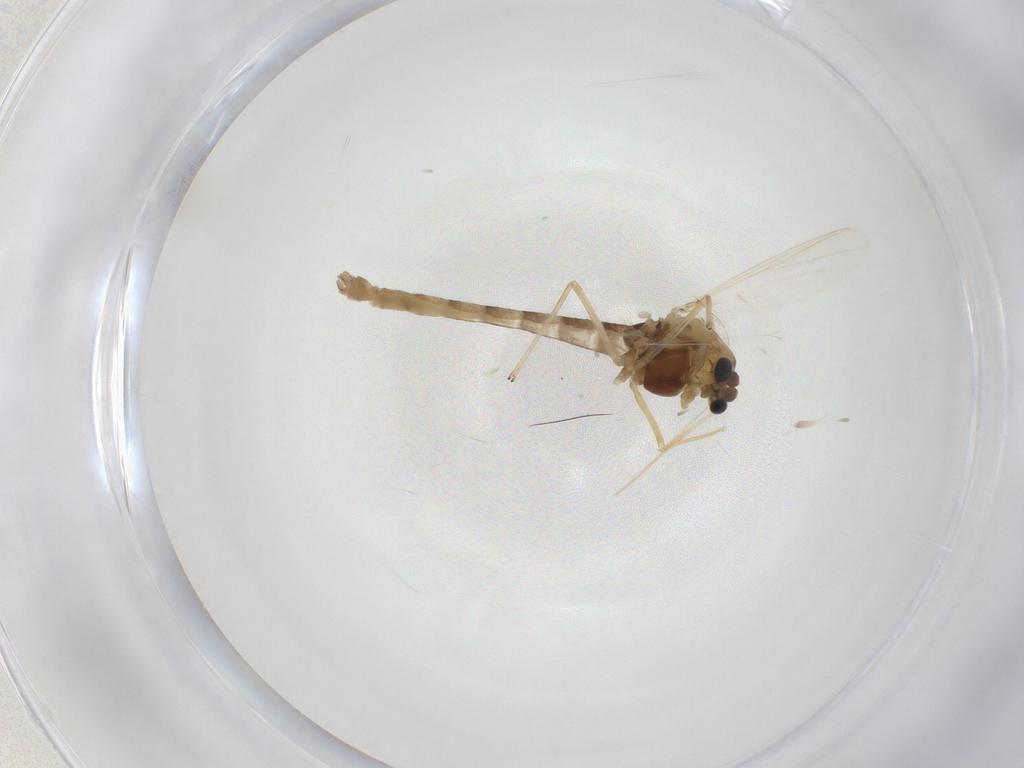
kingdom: Animalia
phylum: Arthropoda
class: Insecta
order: Diptera
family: Chironomidae
